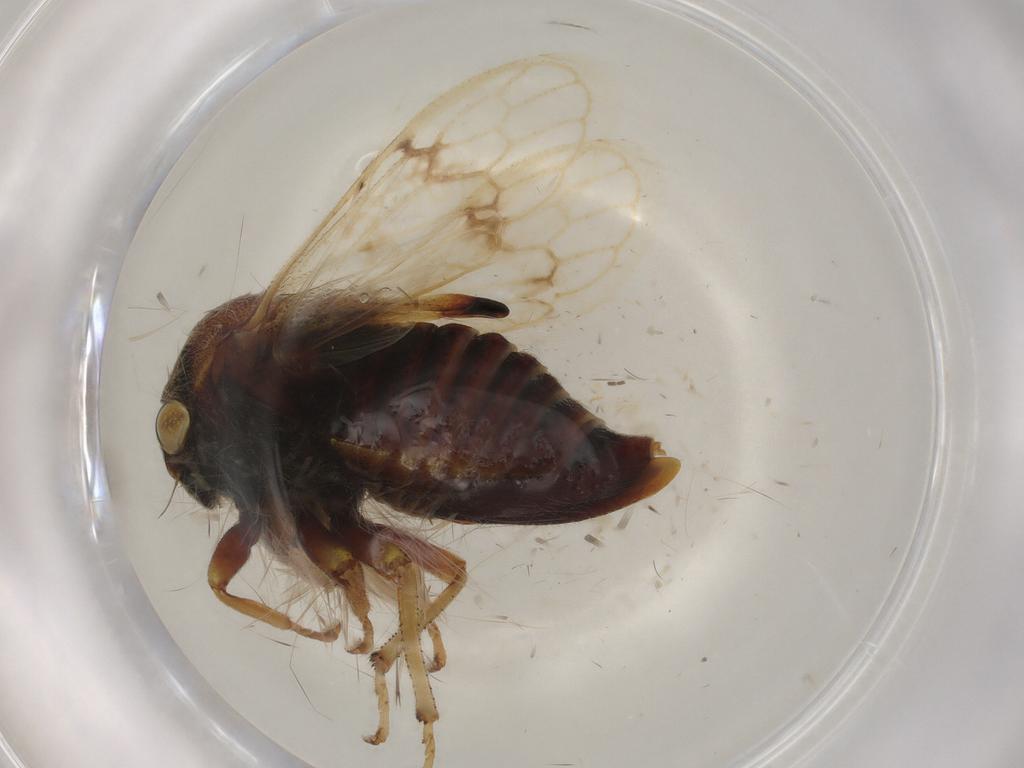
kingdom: Animalia
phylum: Arthropoda
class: Insecta
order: Hemiptera
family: Membracidae
